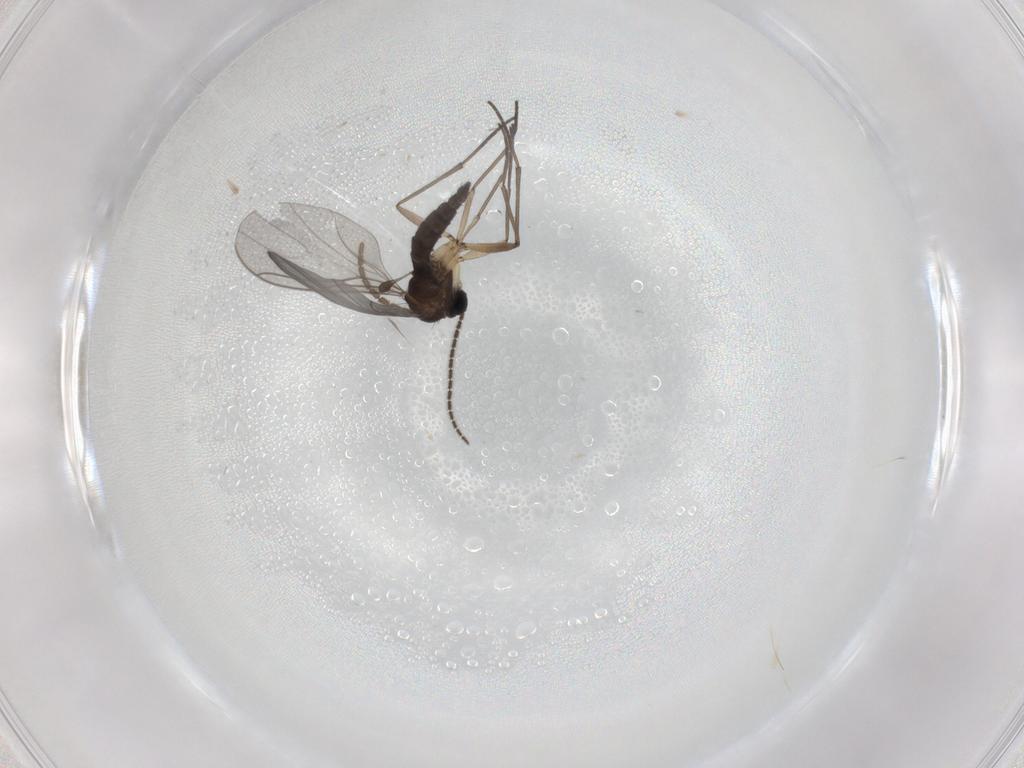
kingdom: Animalia
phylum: Arthropoda
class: Insecta
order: Diptera
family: Sciaridae
